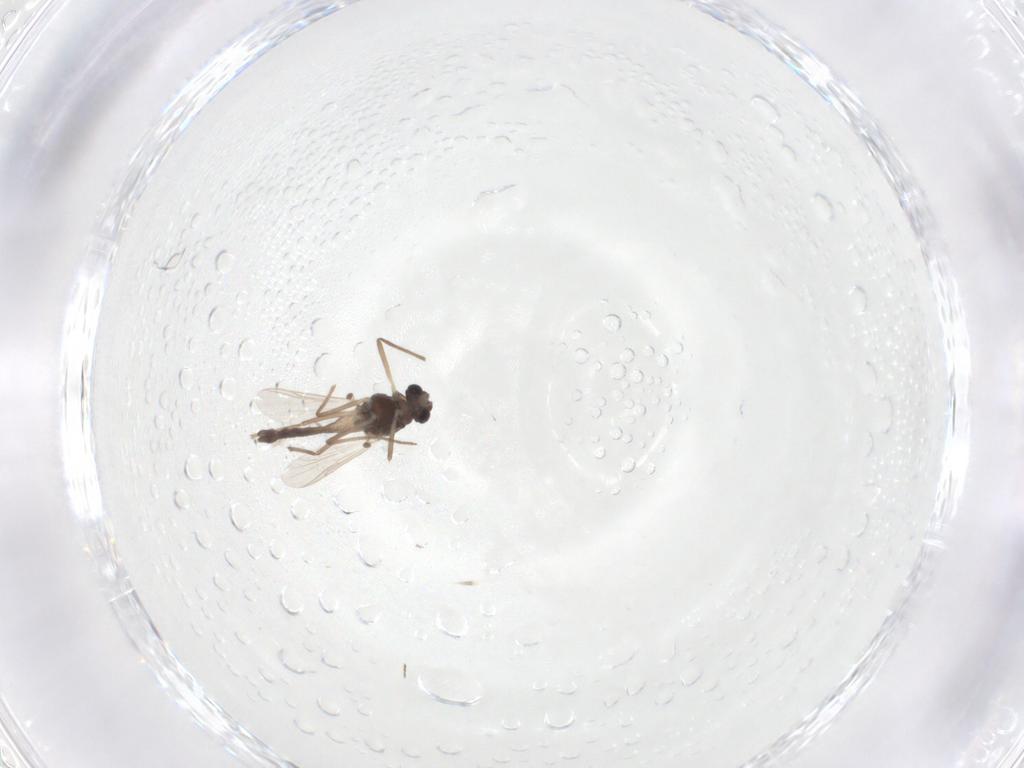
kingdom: Animalia
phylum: Arthropoda
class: Insecta
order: Diptera
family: Chironomidae
